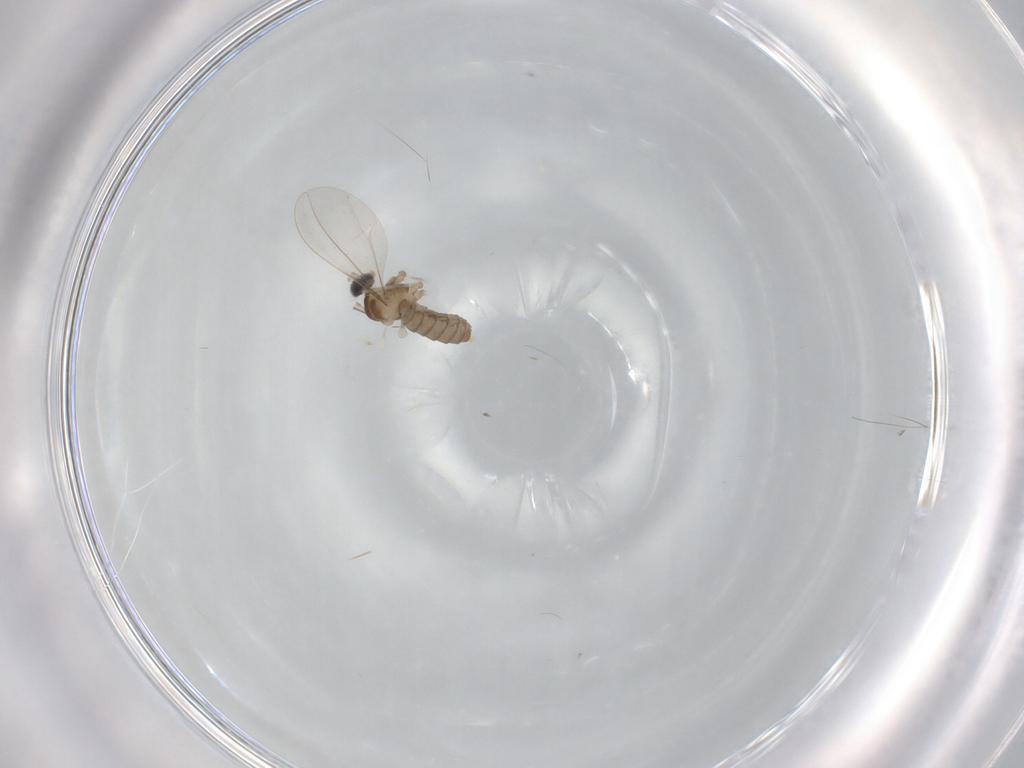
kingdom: Animalia
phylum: Arthropoda
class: Insecta
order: Diptera
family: Cecidomyiidae
